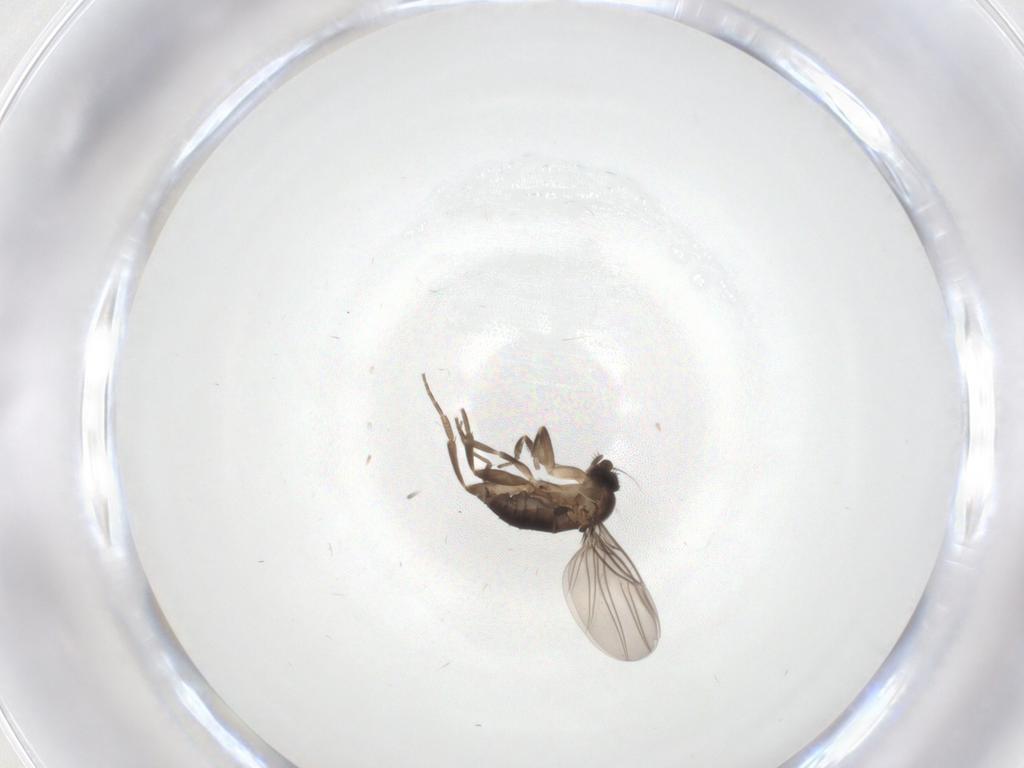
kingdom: Animalia
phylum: Arthropoda
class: Insecta
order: Diptera
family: Phoridae
